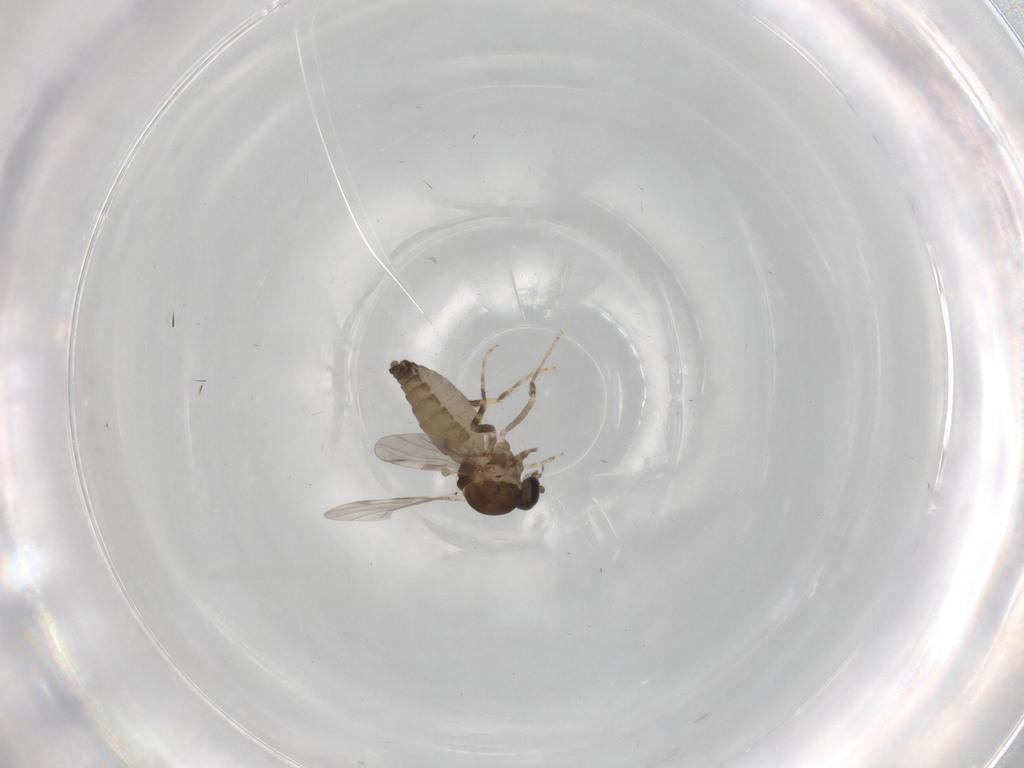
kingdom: Animalia
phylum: Arthropoda
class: Insecta
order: Diptera
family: Ceratopogonidae
